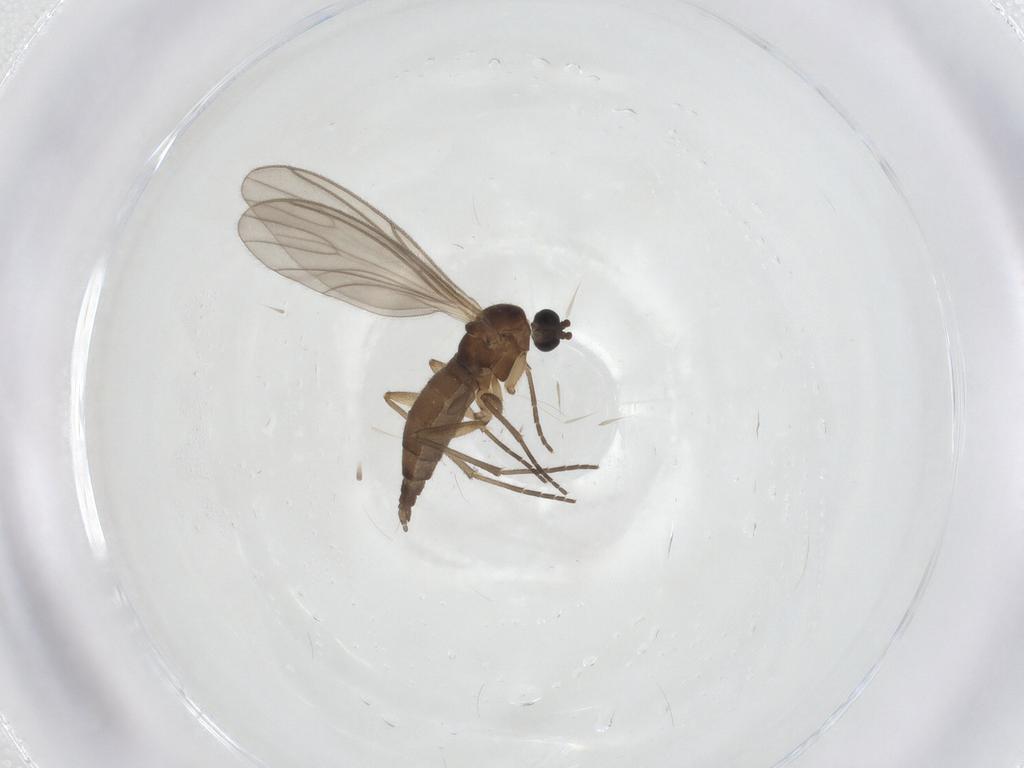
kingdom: Animalia
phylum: Arthropoda
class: Insecta
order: Diptera
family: Sciaridae
